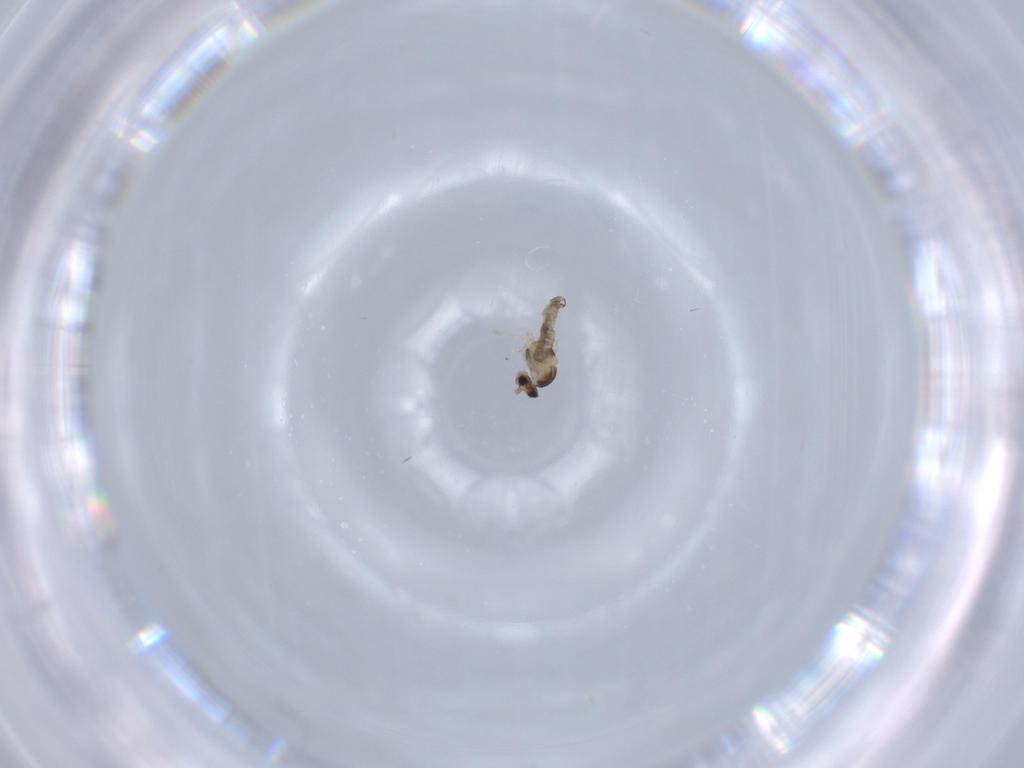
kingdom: Animalia
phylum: Arthropoda
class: Insecta
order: Diptera
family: Cecidomyiidae
